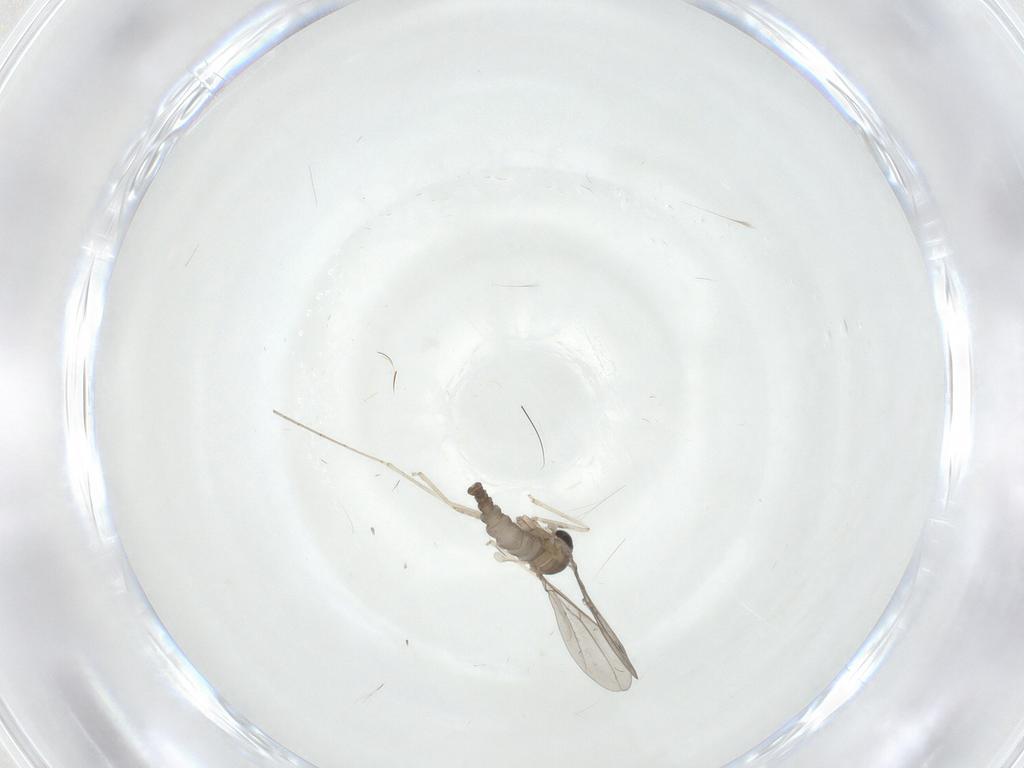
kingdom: Animalia
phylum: Arthropoda
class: Insecta
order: Diptera
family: Cecidomyiidae
